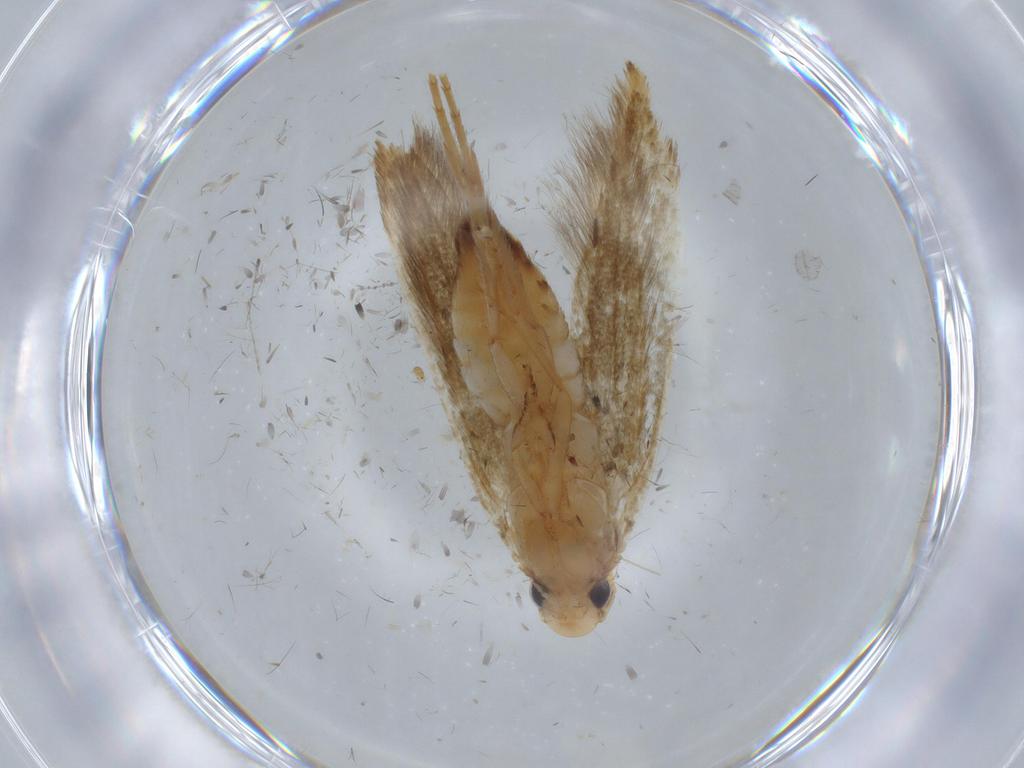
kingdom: Animalia
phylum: Arthropoda
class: Insecta
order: Lepidoptera
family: Tineidae
